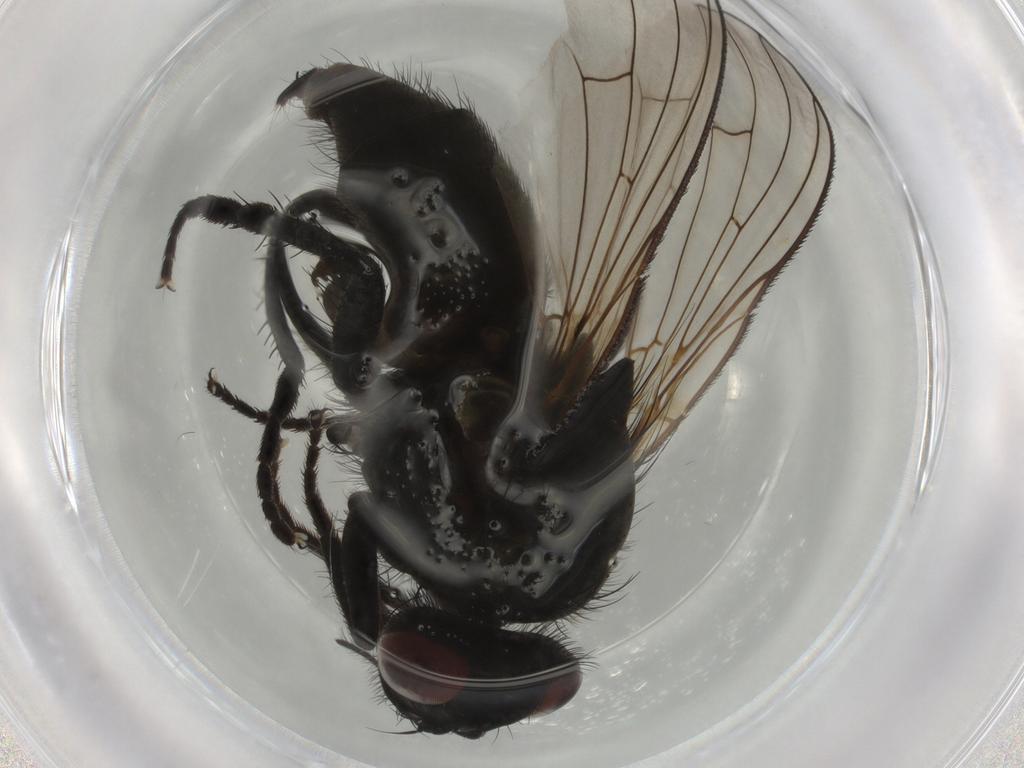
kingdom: Animalia
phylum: Arthropoda
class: Insecta
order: Diptera
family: Muscidae
